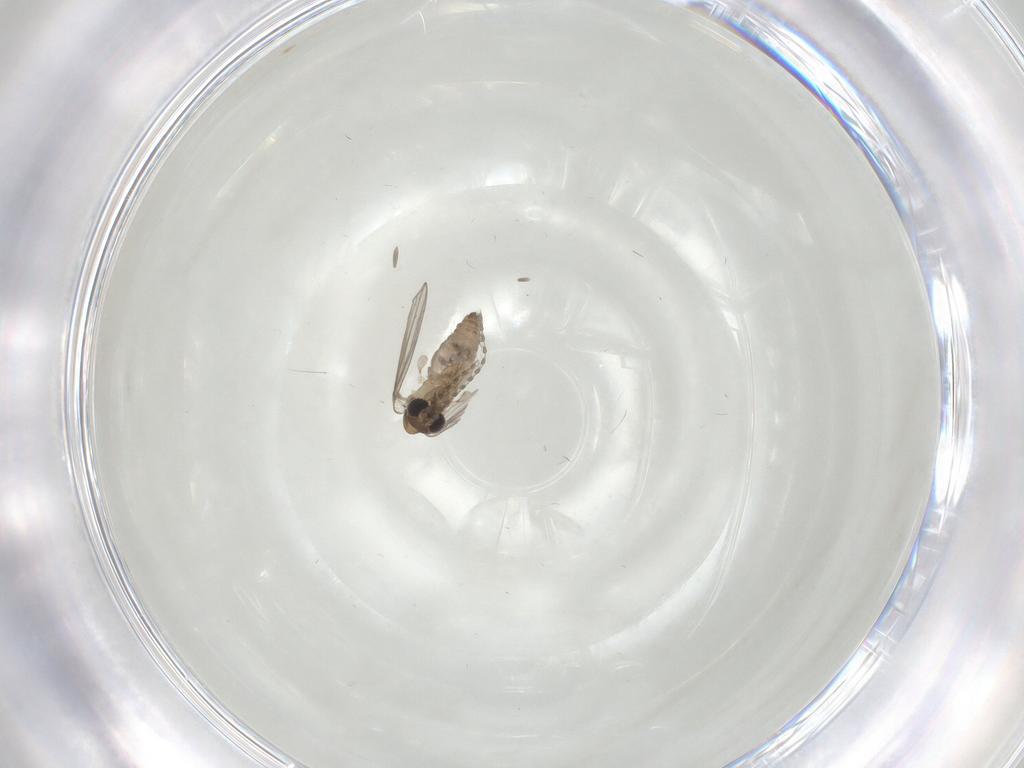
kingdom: Animalia
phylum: Arthropoda
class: Insecta
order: Diptera
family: Psychodidae
